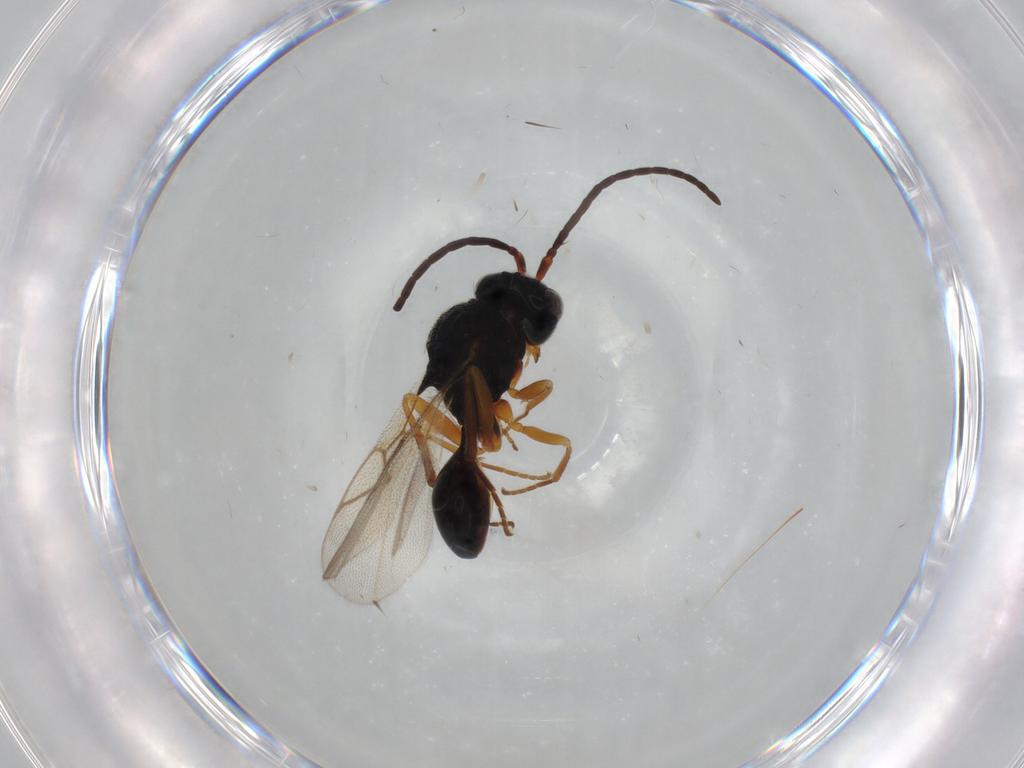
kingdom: Animalia
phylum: Arthropoda
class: Insecta
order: Hymenoptera
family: Figitidae
